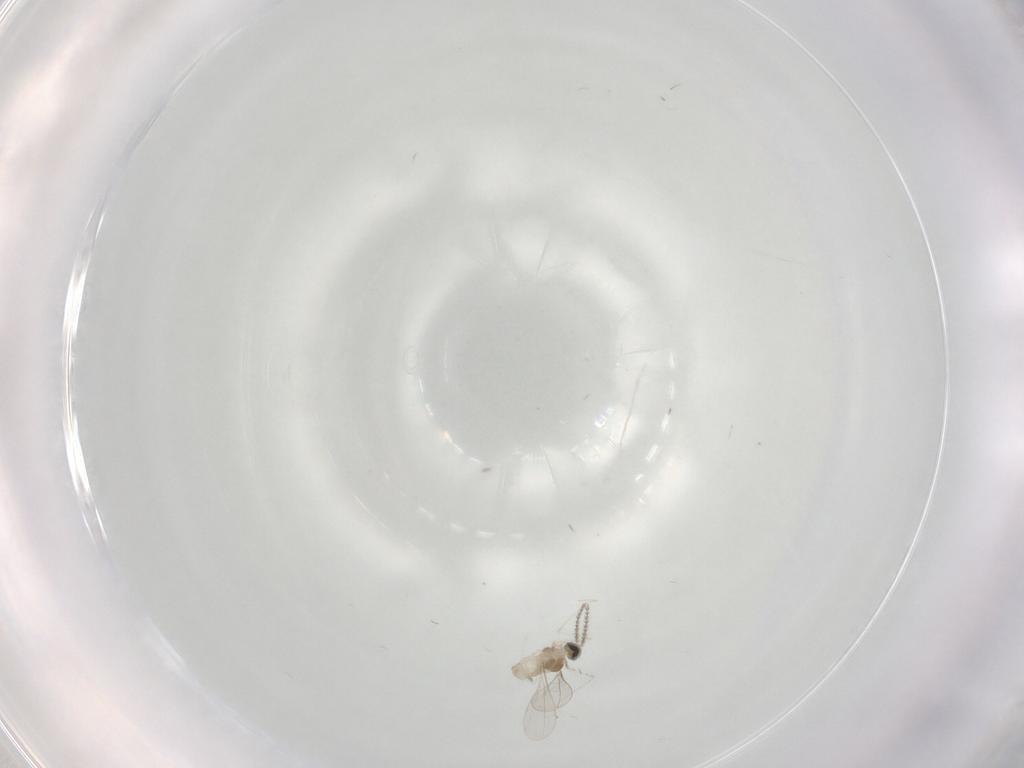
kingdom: Animalia
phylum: Arthropoda
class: Insecta
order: Diptera
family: Cecidomyiidae
